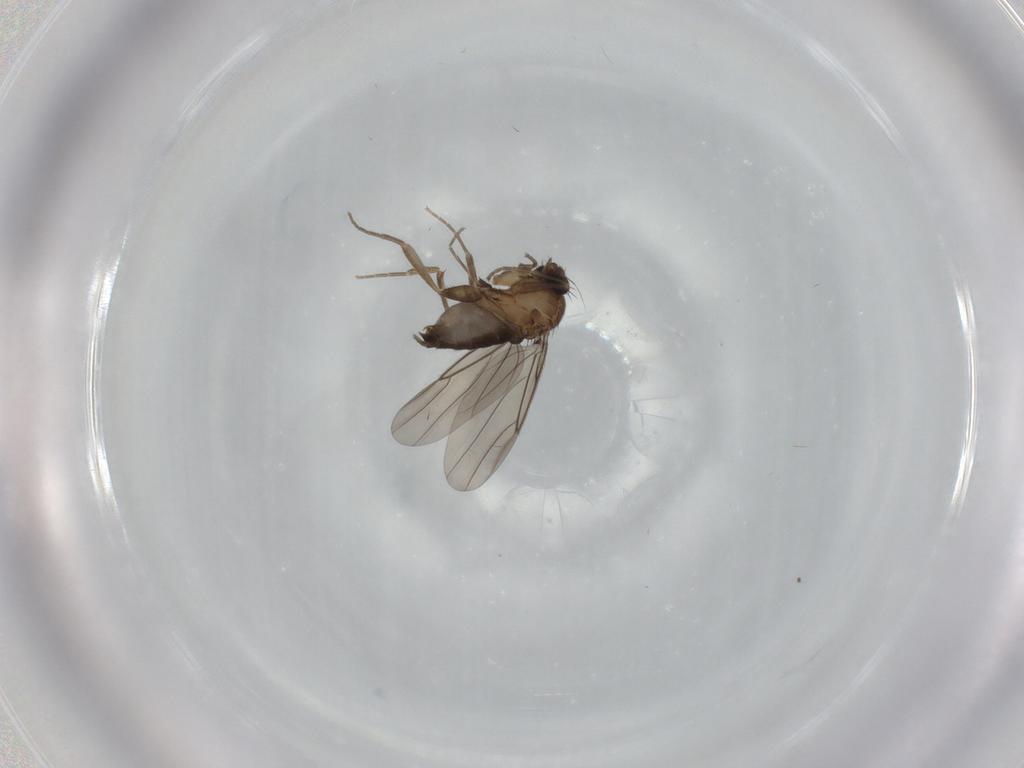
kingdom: Animalia
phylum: Arthropoda
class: Insecta
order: Diptera
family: Phoridae
